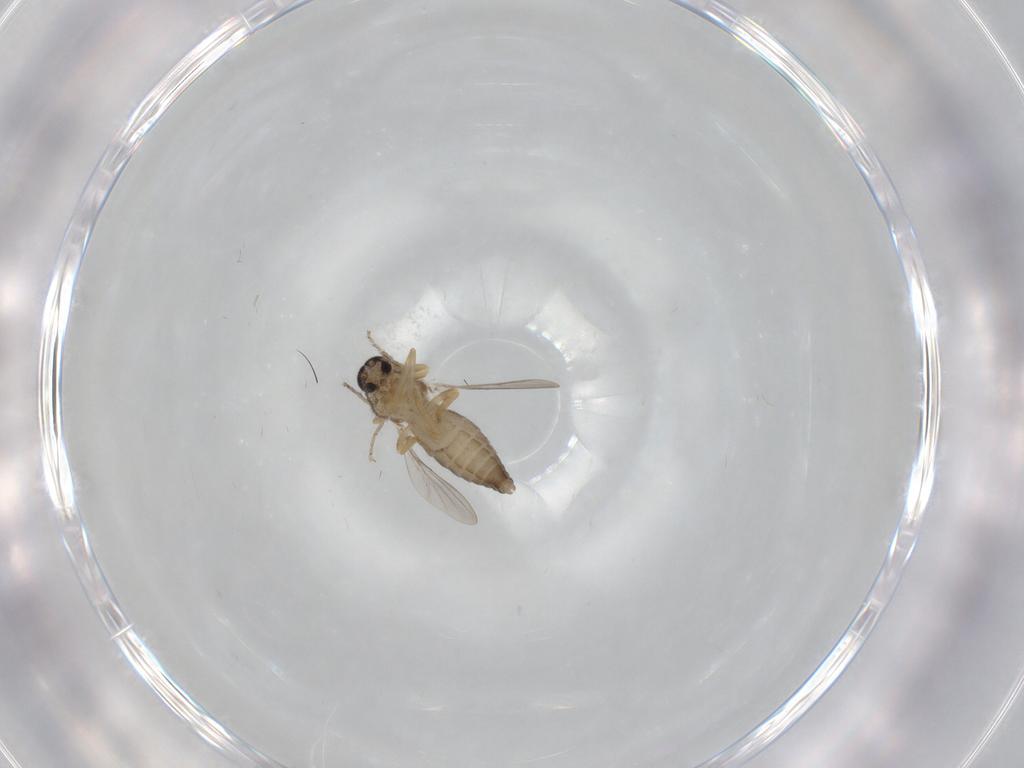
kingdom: Animalia
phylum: Arthropoda
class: Insecta
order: Diptera
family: Ceratopogonidae
